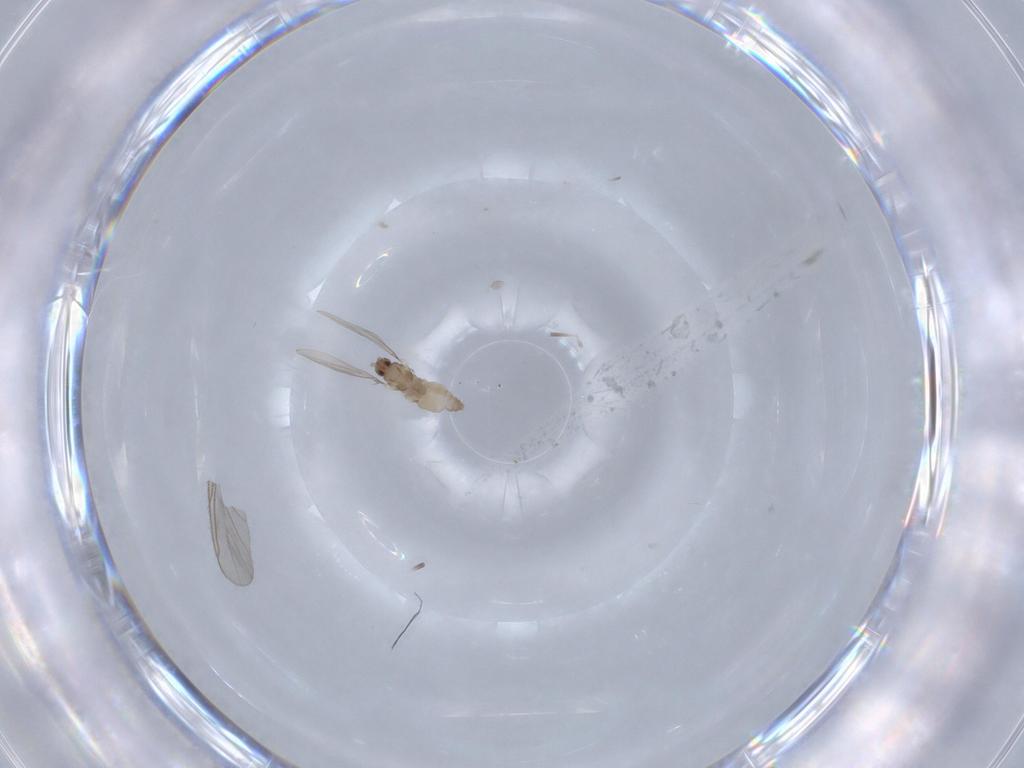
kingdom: Animalia
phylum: Arthropoda
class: Insecta
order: Diptera
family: Cecidomyiidae
